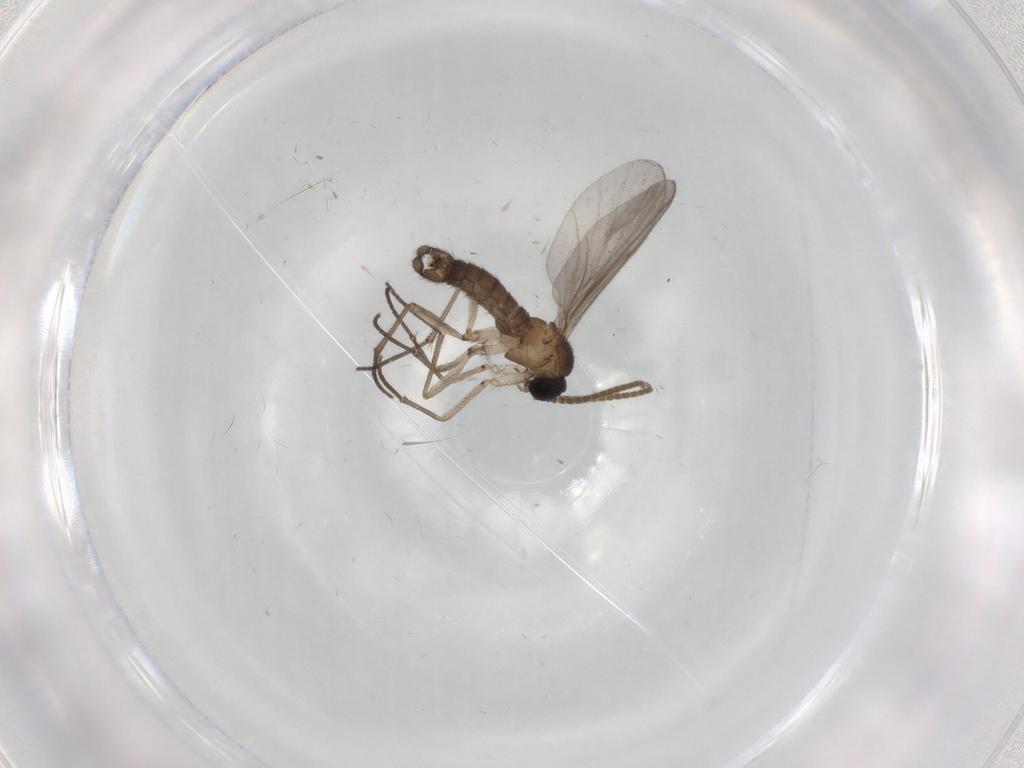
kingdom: Animalia
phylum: Arthropoda
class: Insecta
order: Diptera
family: Sciaridae
